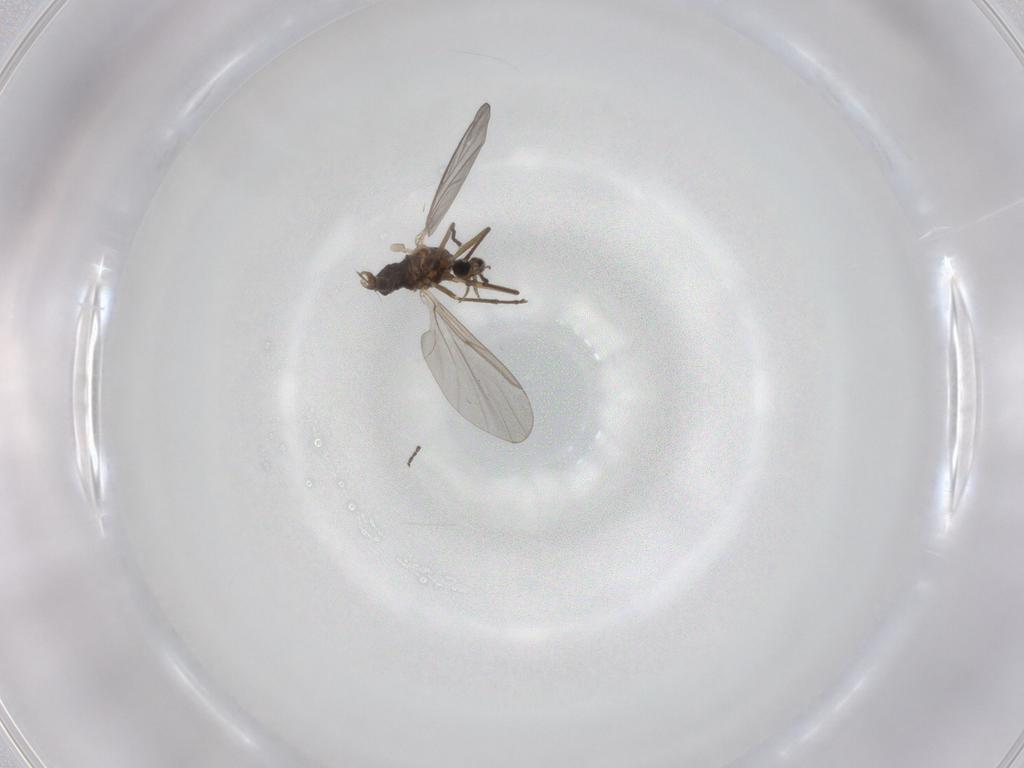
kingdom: Animalia
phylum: Arthropoda
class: Insecta
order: Diptera
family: Cecidomyiidae
